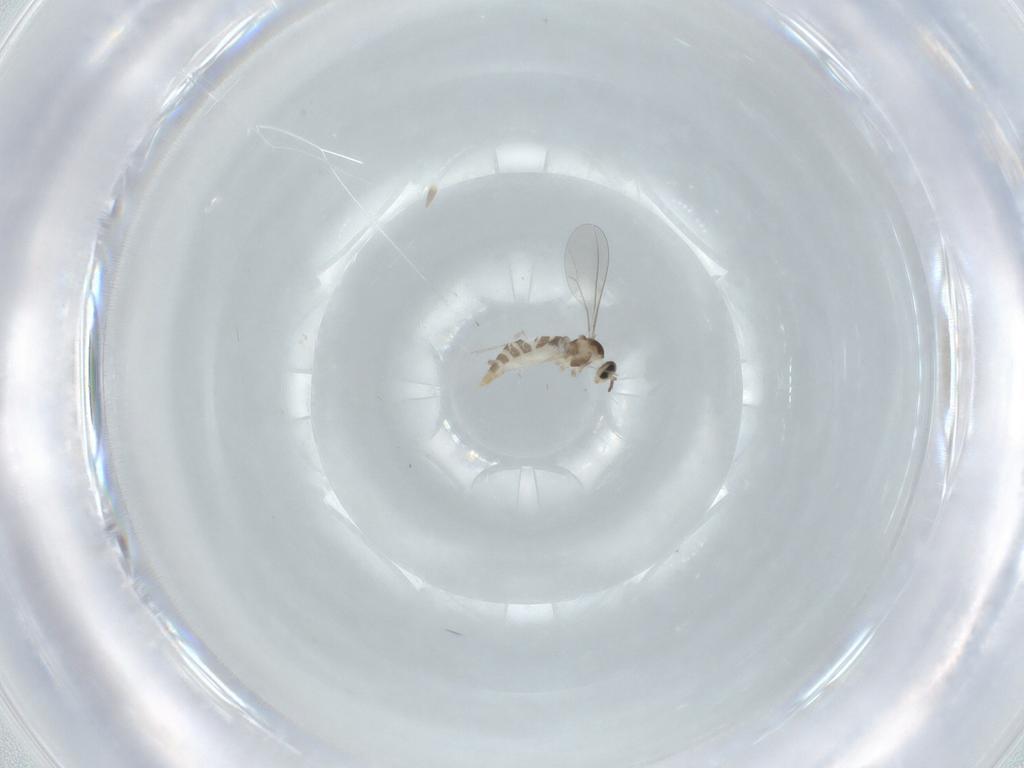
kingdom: Animalia
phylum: Arthropoda
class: Insecta
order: Diptera
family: Cecidomyiidae
